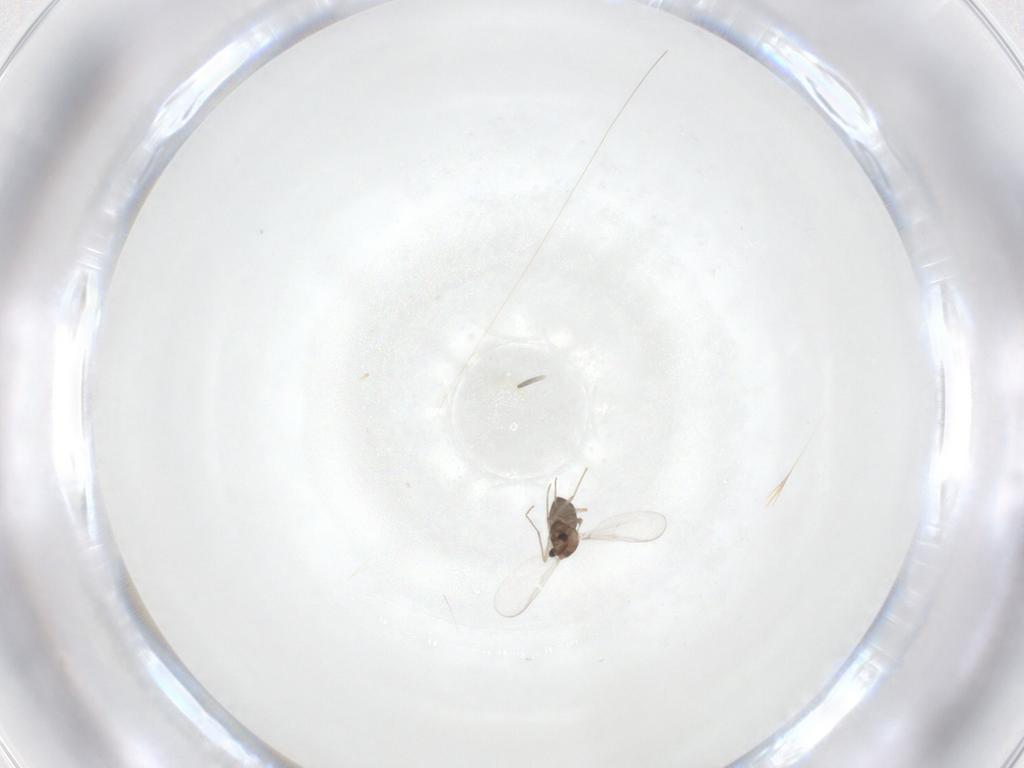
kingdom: Animalia
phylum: Arthropoda
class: Insecta
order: Diptera
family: Chironomidae
